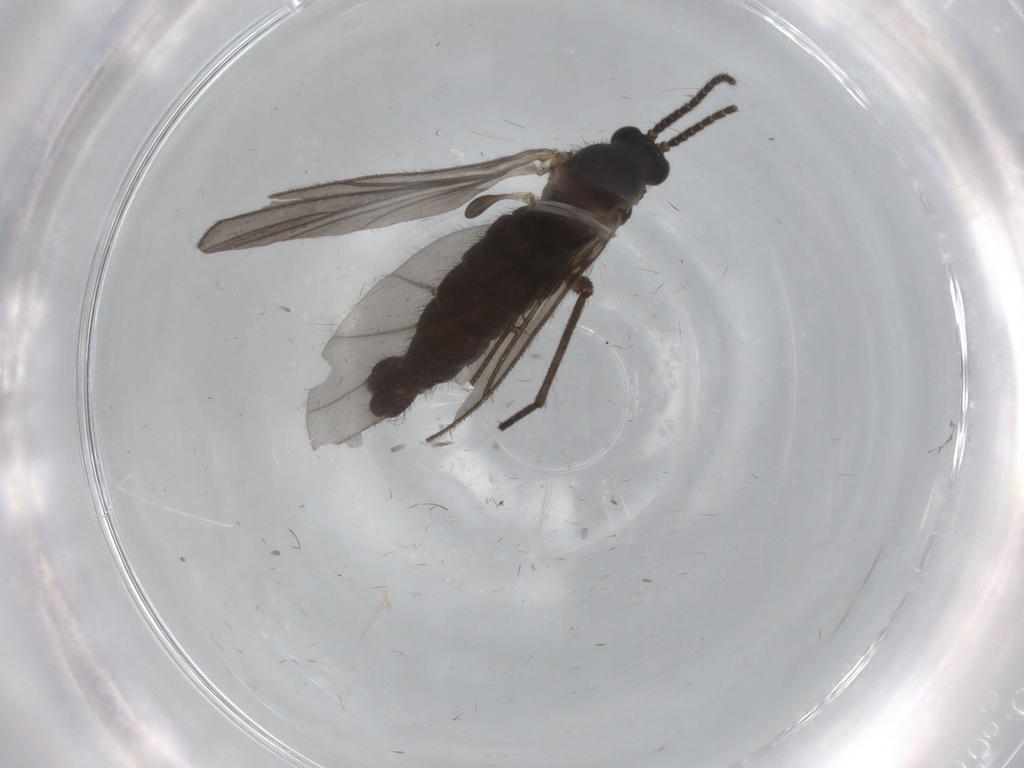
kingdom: Animalia
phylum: Arthropoda
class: Insecta
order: Diptera
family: Sciaridae
